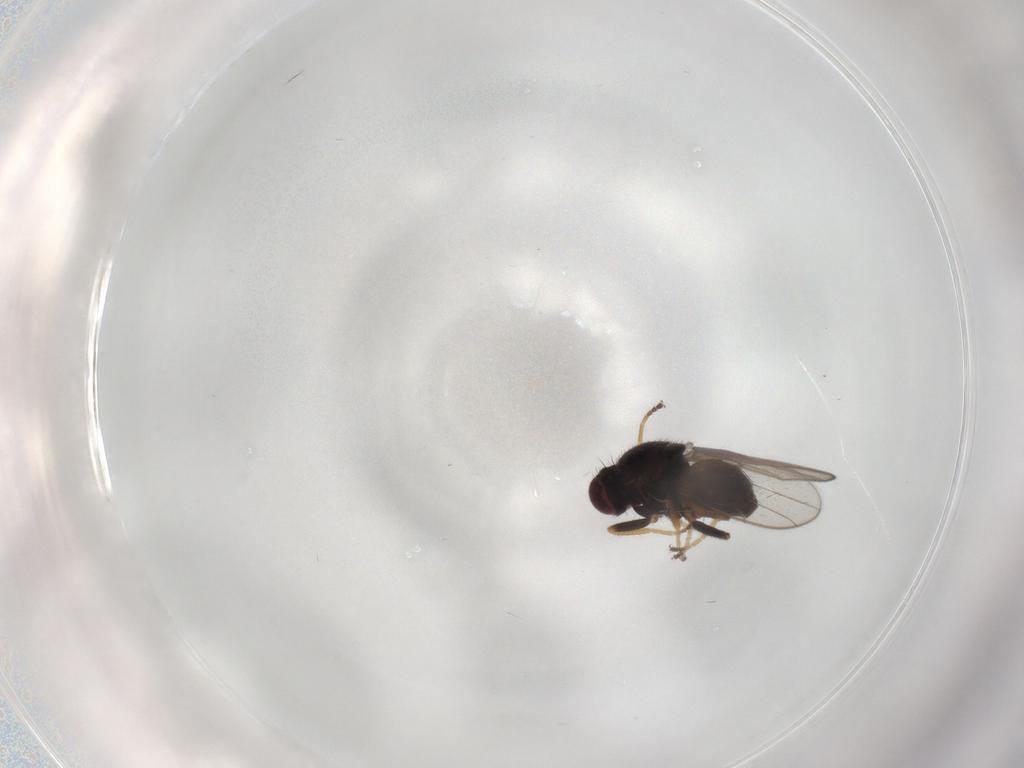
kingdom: Animalia
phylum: Arthropoda
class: Insecta
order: Diptera
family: Chloropidae
